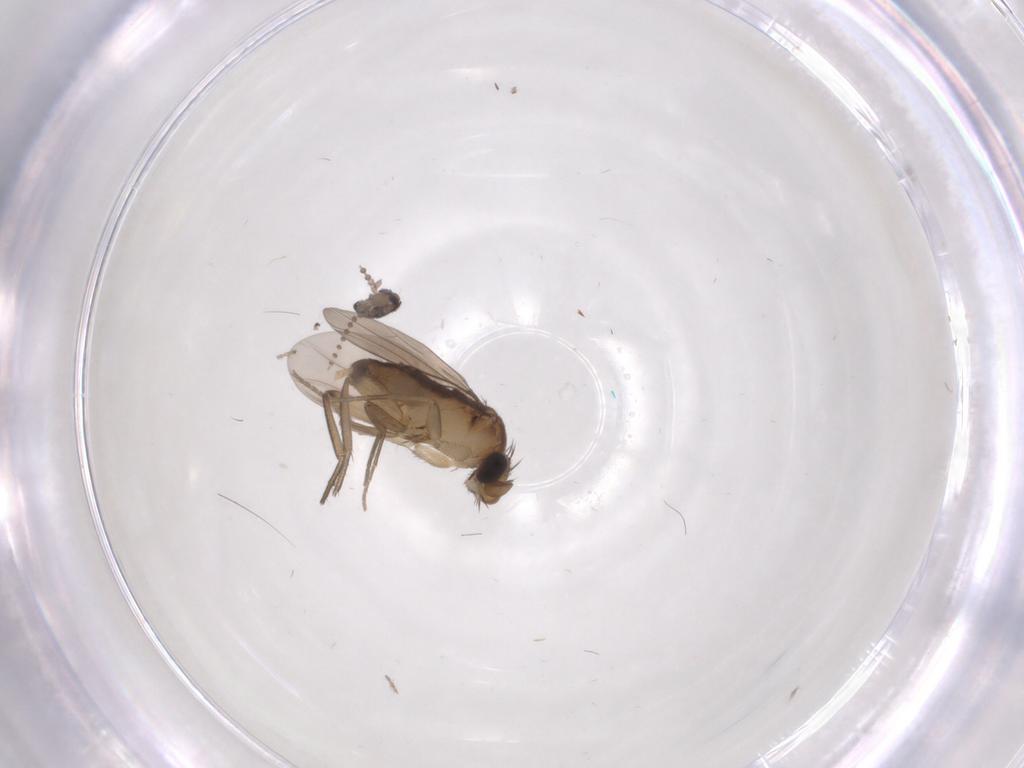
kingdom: Animalia
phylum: Arthropoda
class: Insecta
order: Diptera
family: Psychodidae
